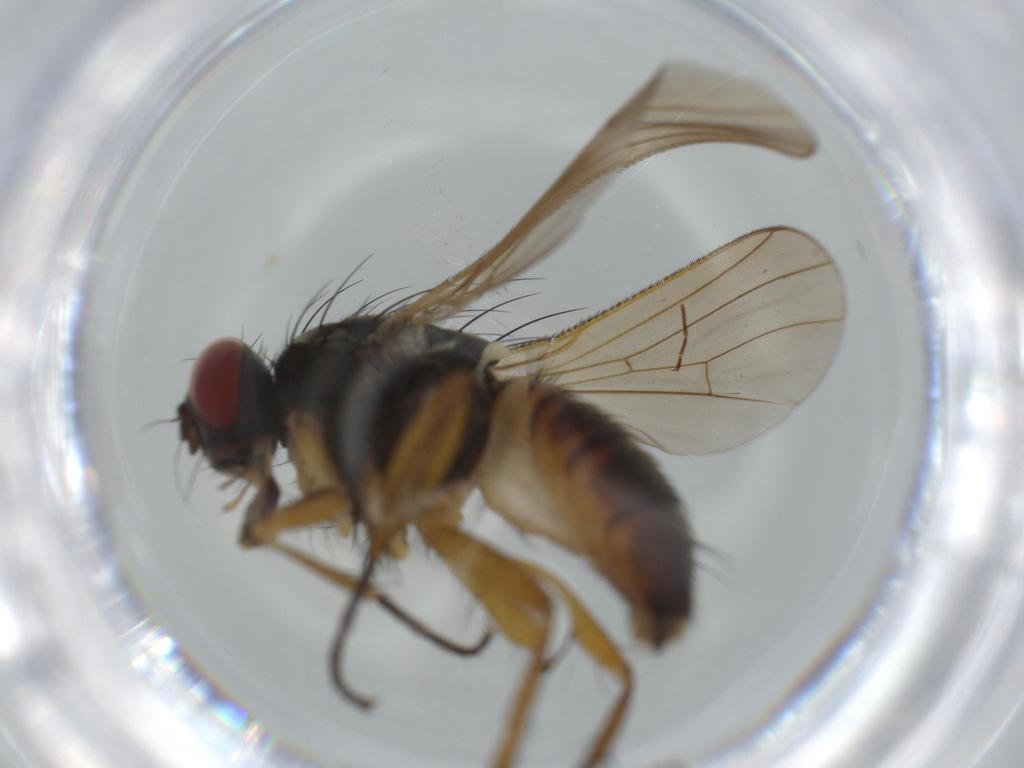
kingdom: Animalia
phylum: Arthropoda
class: Insecta
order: Diptera
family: Cecidomyiidae
